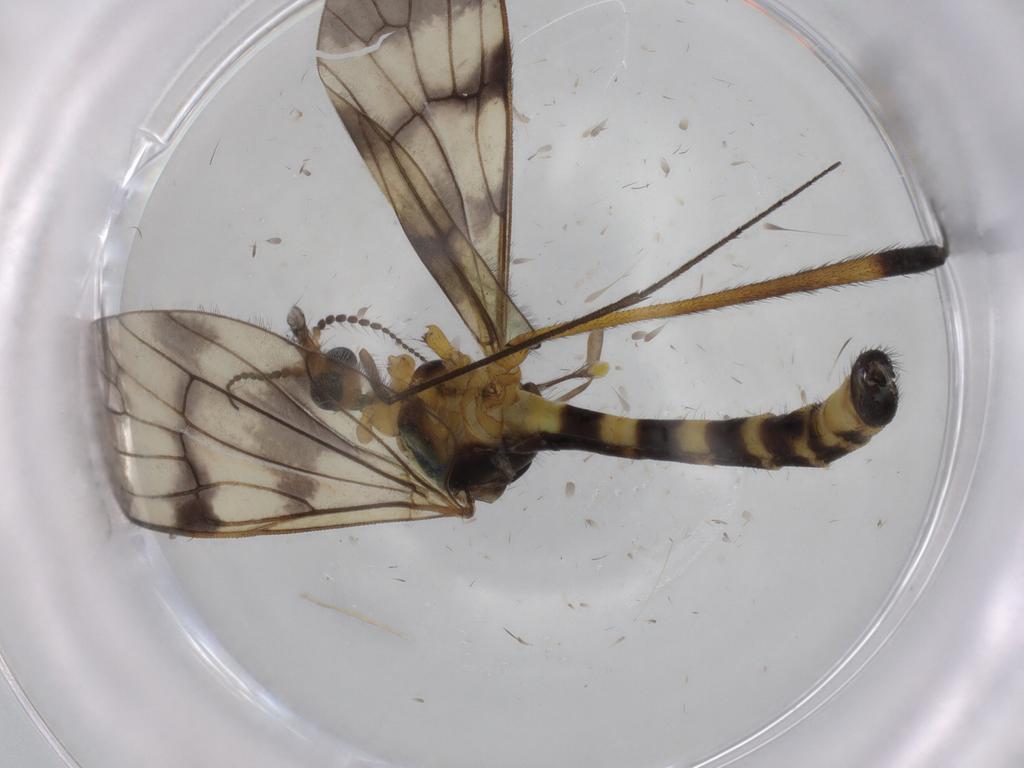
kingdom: Animalia
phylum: Arthropoda
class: Insecta
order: Diptera
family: Limoniidae
